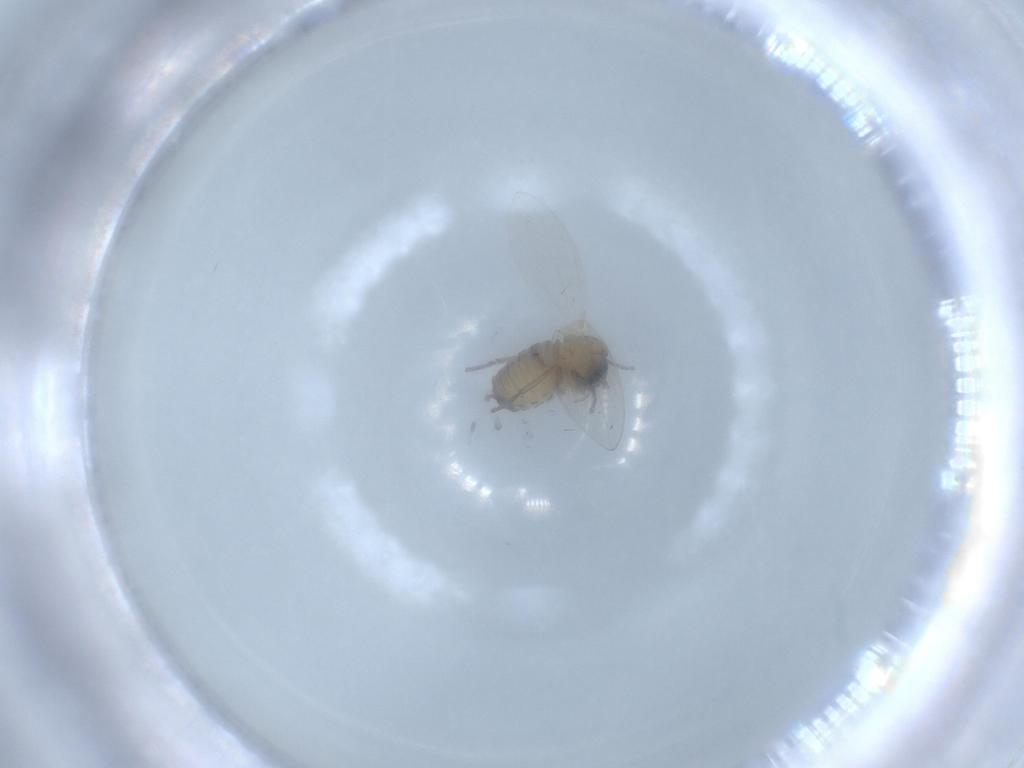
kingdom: Animalia
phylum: Arthropoda
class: Insecta
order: Diptera
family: Psychodidae
